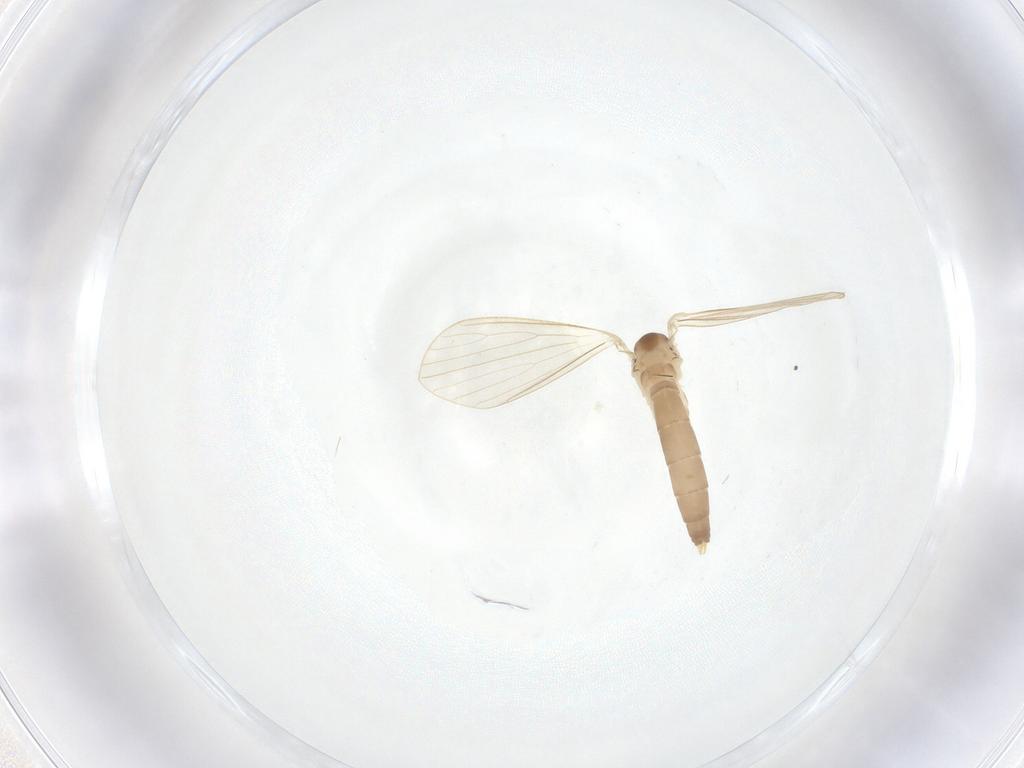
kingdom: Animalia
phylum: Arthropoda
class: Insecta
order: Diptera
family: Psychodidae
